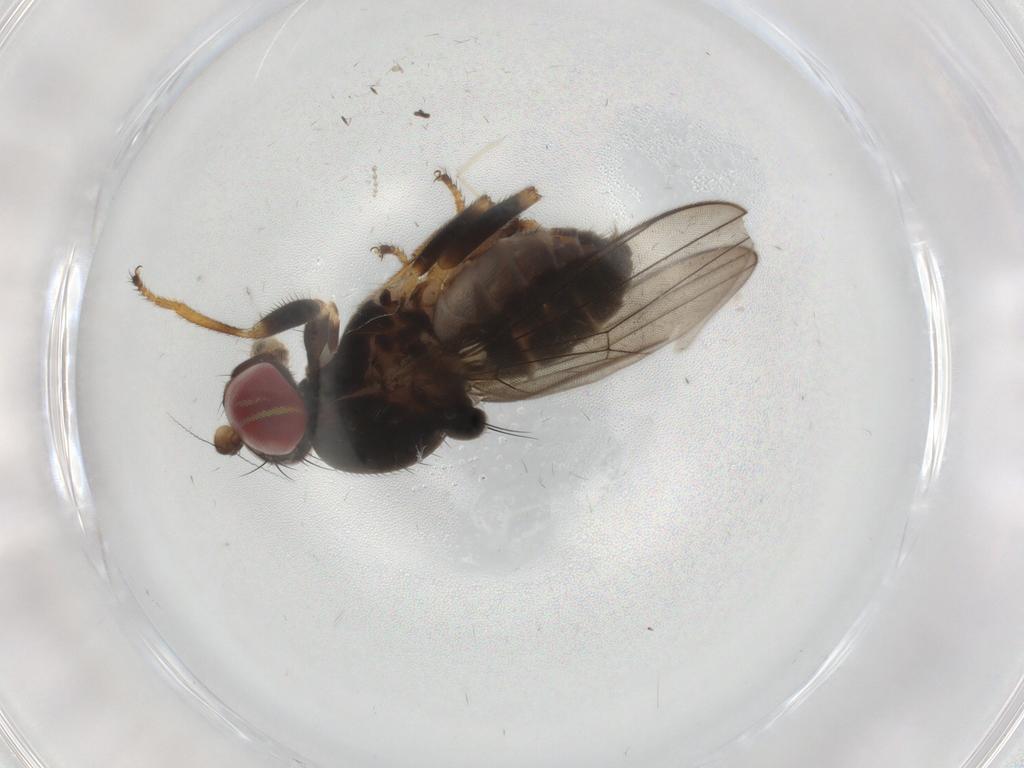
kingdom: Animalia
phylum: Arthropoda
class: Insecta
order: Diptera
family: Aulacigastridae
